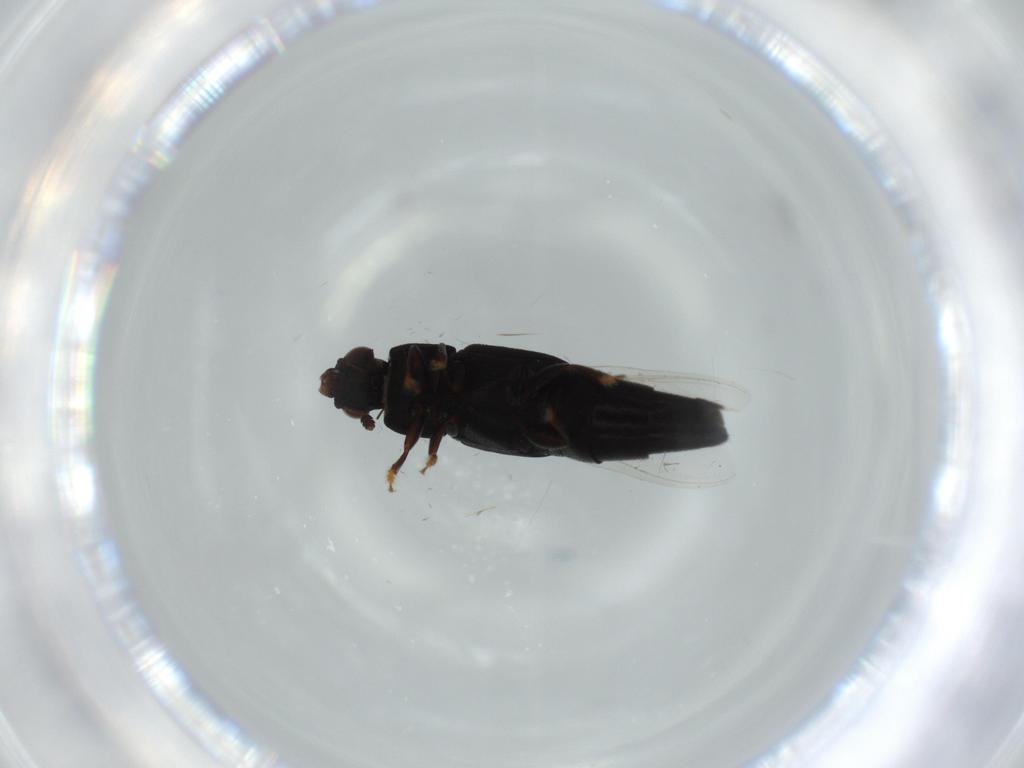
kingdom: Animalia
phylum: Arthropoda
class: Insecta
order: Coleoptera
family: Nitidulidae
